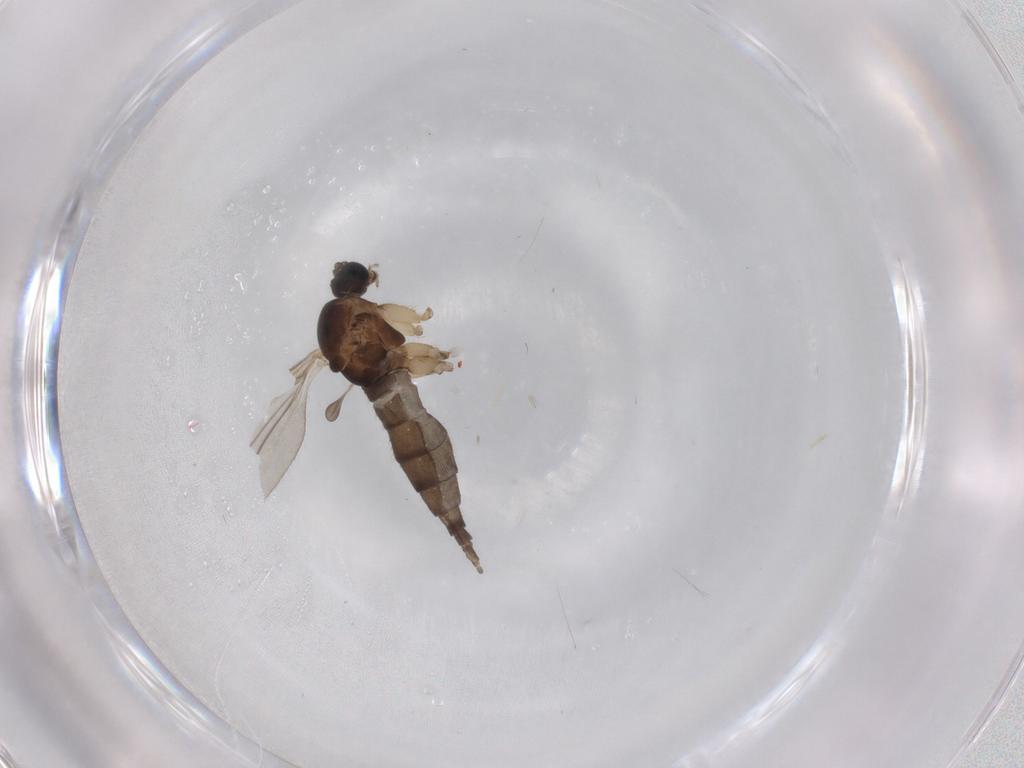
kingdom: Animalia
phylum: Arthropoda
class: Insecta
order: Diptera
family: Sciaridae
